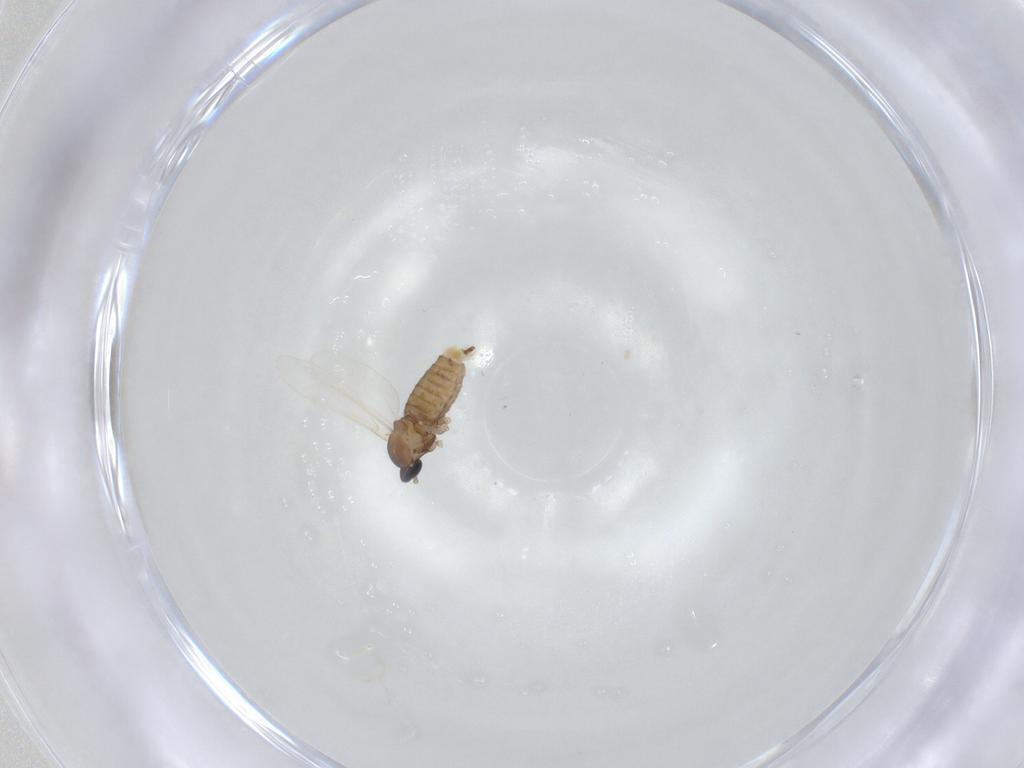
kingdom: Animalia
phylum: Arthropoda
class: Insecta
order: Diptera
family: Cecidomyiidae
